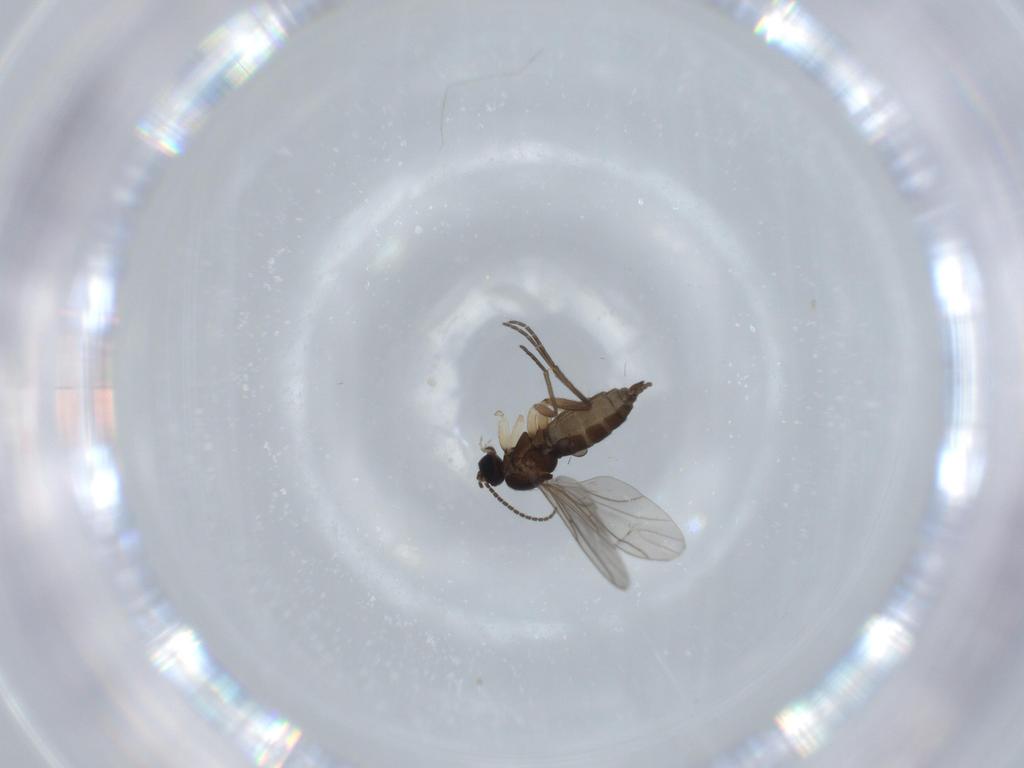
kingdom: Animalia
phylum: Arthropoda
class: Insecta
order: Diptera
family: Sciaridae
